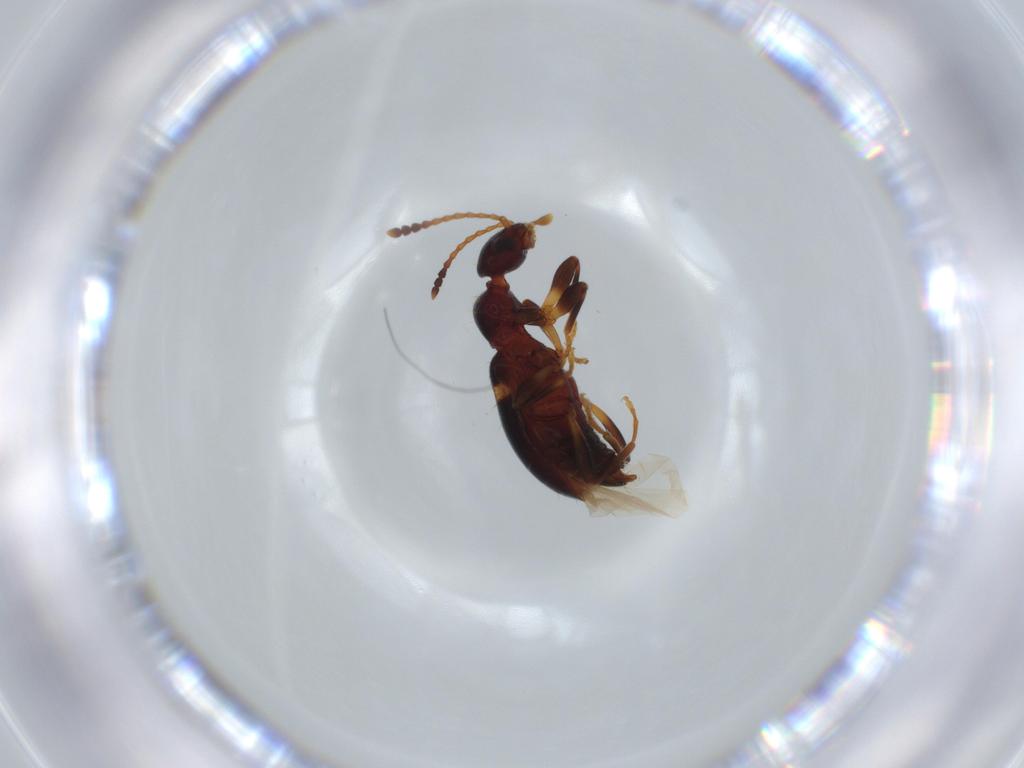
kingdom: Animalia
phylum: Arthropoda
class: Insecta
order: Coleoptera
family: Anthicidae
